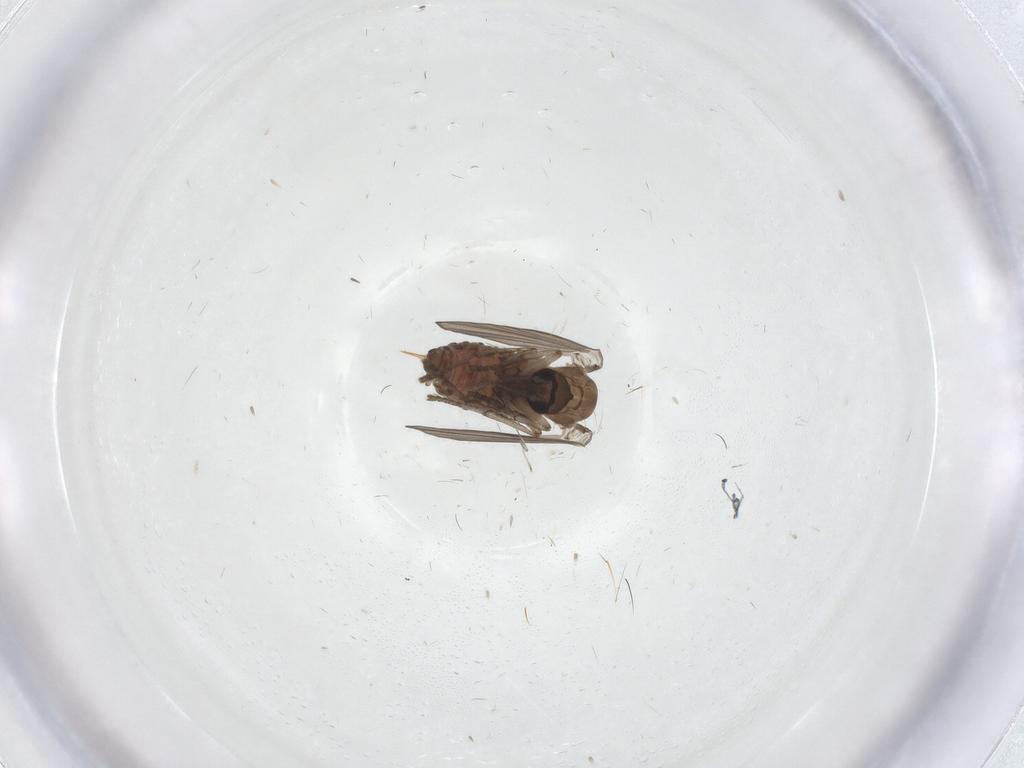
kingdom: Animalia
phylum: Arthropoda
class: Insecta
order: Diptera
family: Psychodidae
